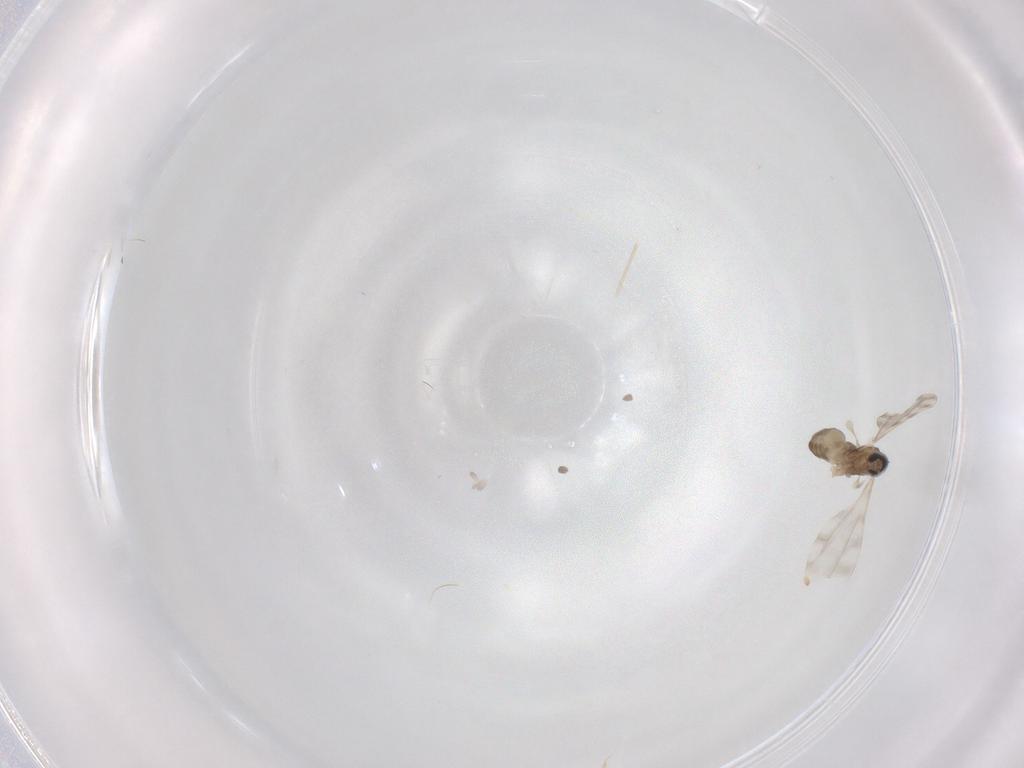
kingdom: Animalia
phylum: Arthropoda
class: Insecta
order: Diptera
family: Cecidomyiidae
